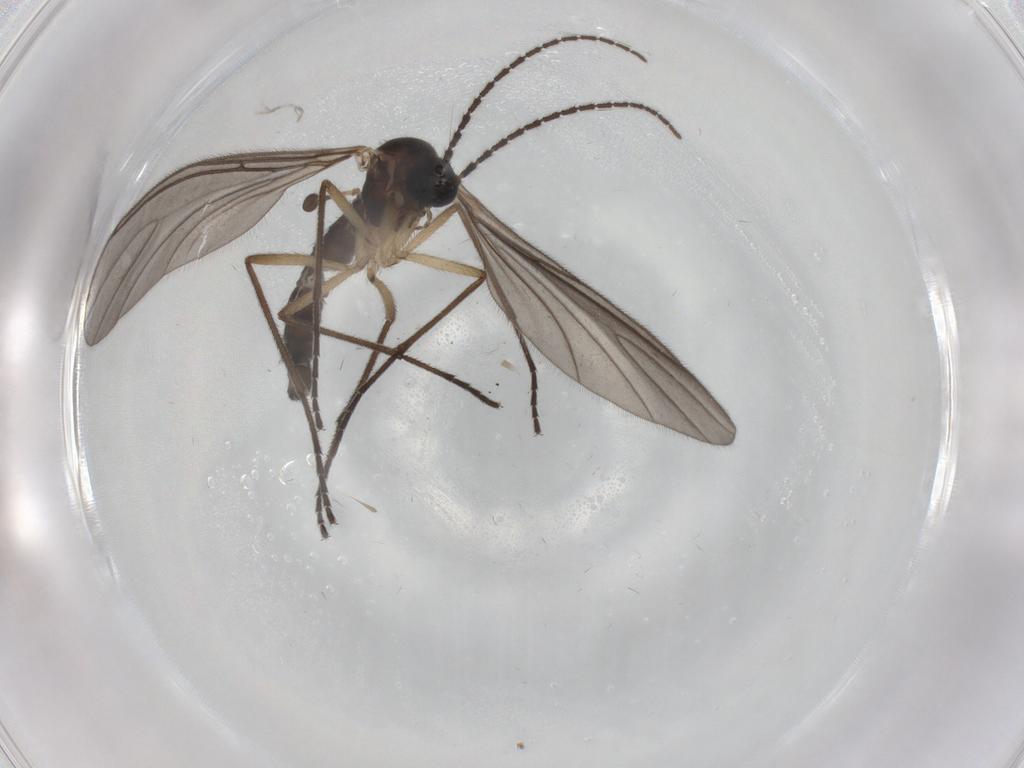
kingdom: Animalia
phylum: Arthropoda
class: Insecta
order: Diptera
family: Sciaridae
